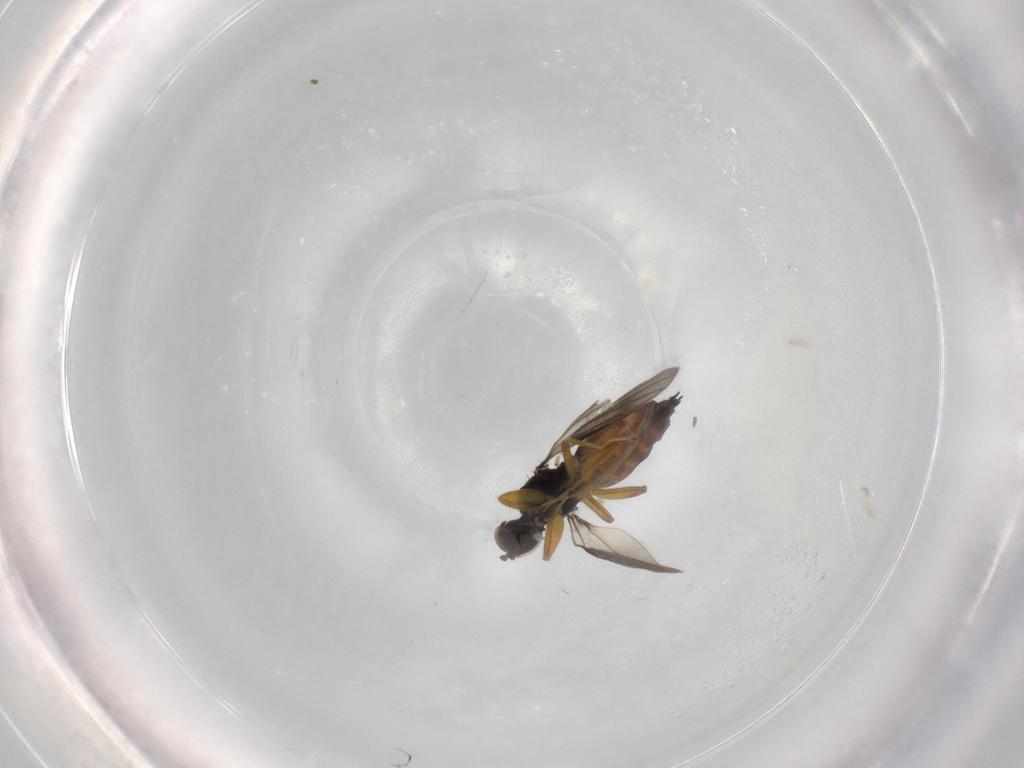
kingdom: Animalia
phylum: Arthropoda
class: Insecta
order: Diptera
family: Hybotidae
